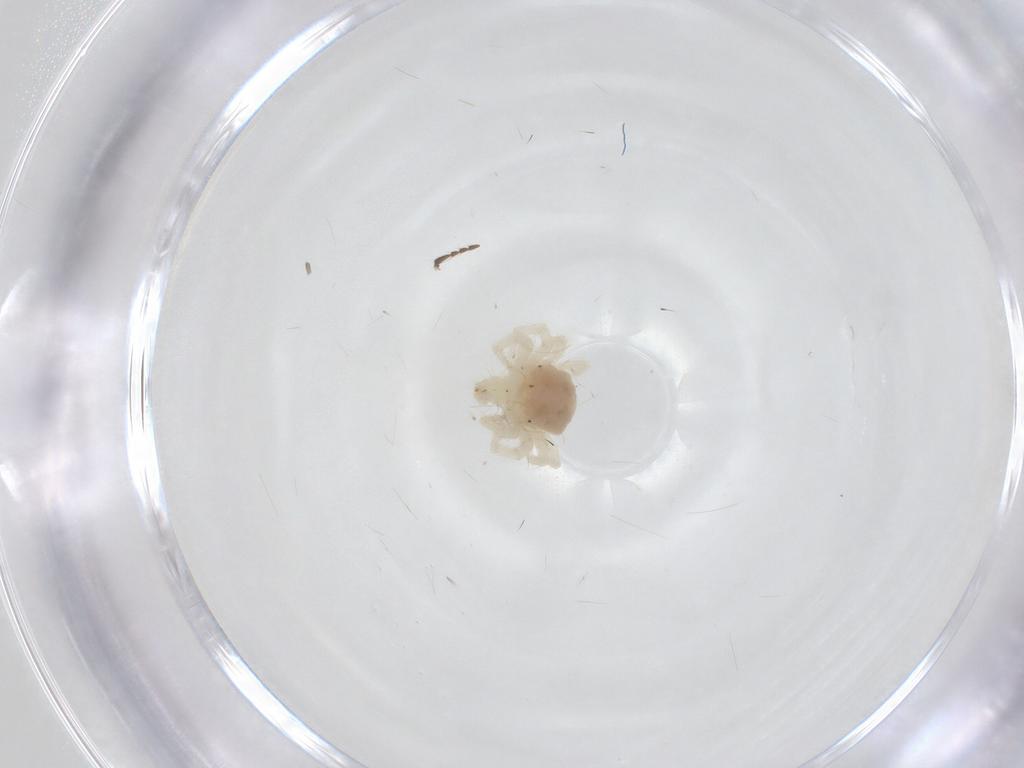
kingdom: Animalia
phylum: Arthropoda
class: Arachnida
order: Trombidiformes
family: Anystidae
